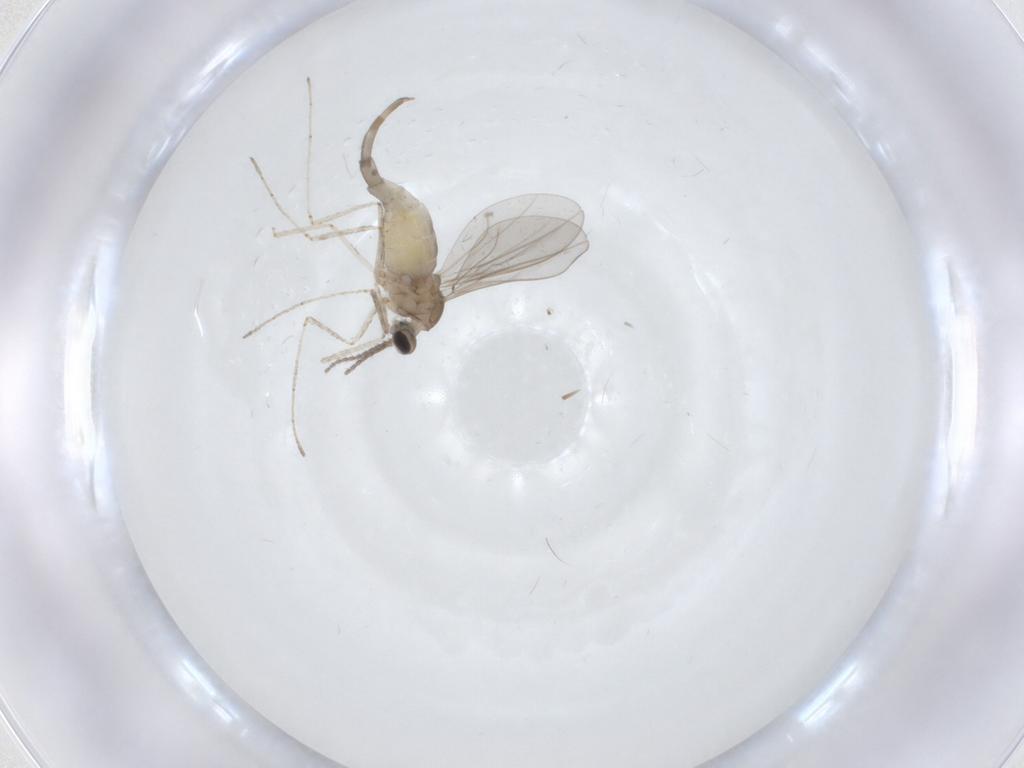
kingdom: Animalia
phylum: Arthropoda
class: Insecta
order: Diptera
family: Cecidomyiidae
